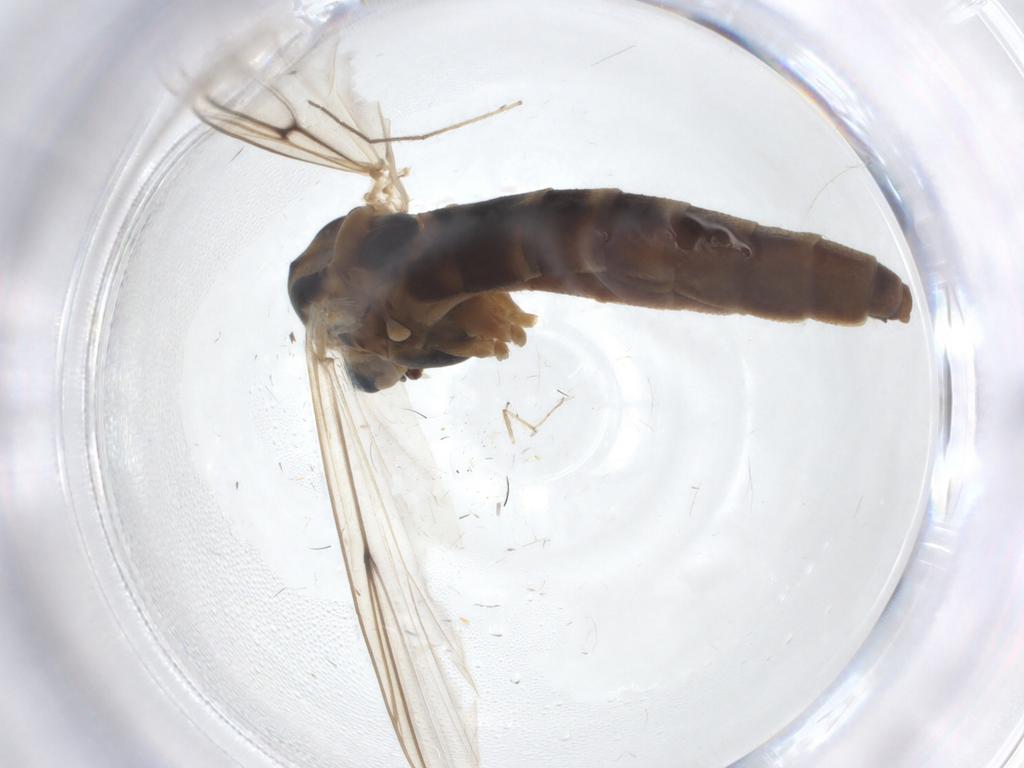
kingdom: Animalia
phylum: Arthropoda
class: Insecta
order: Diptera
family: Chironomidae
